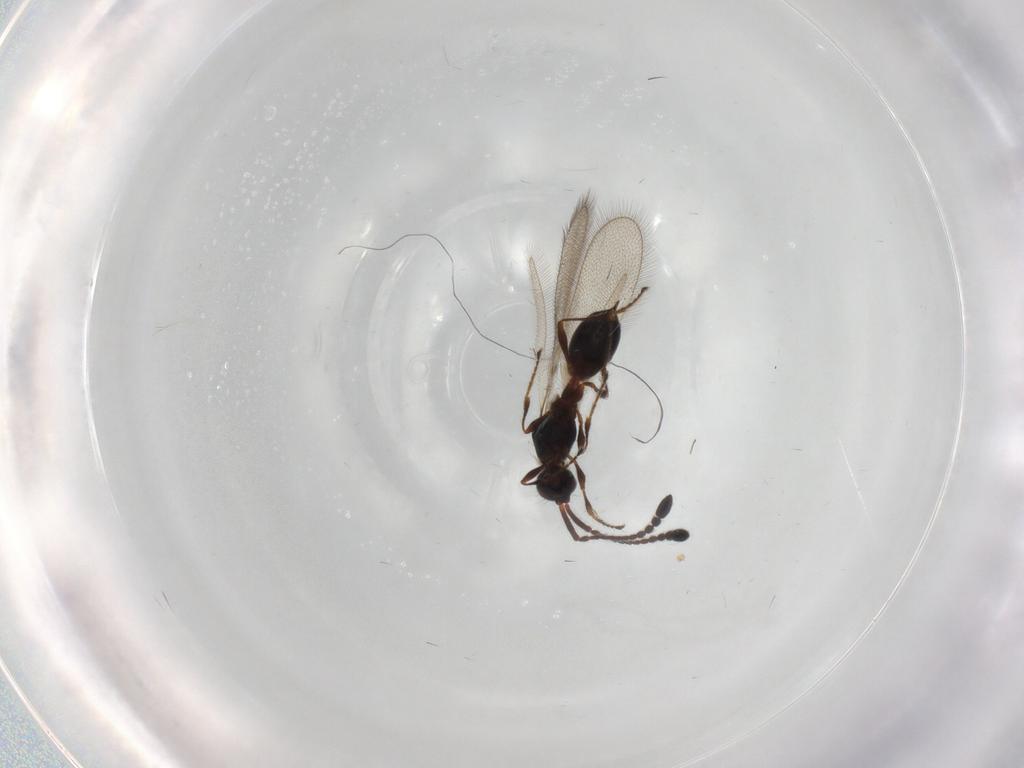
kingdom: Animalia
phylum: Arthropoda
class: Insecta
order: Hymenoptera
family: Diapriidae
